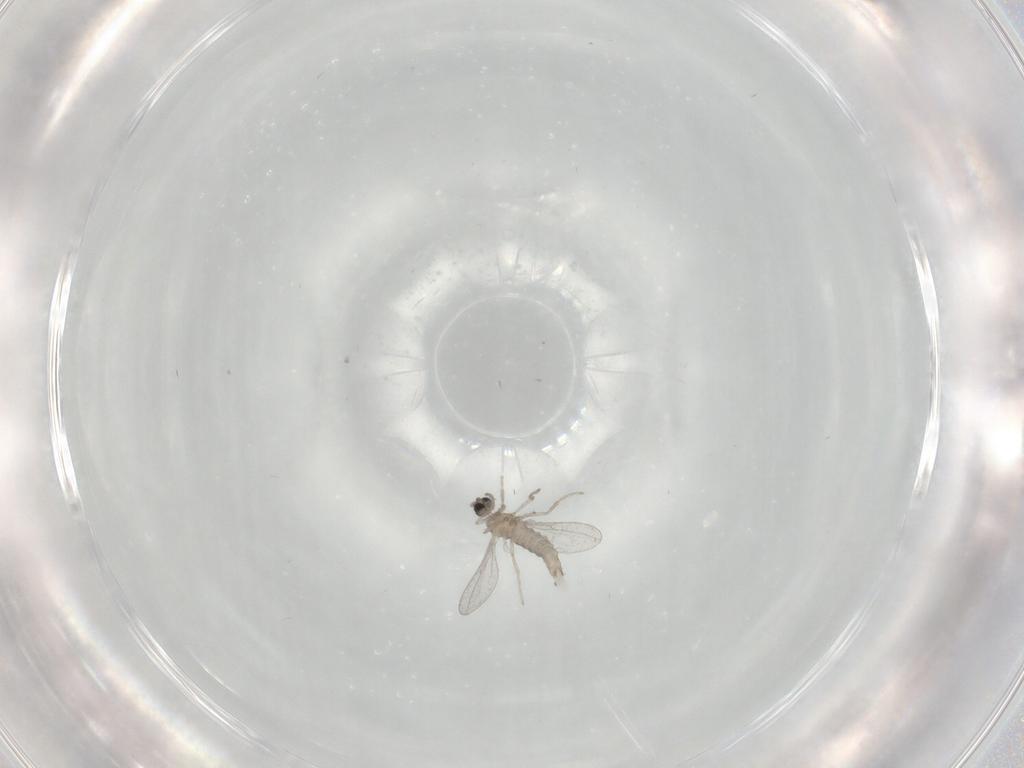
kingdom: Animalia
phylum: Arthropoda
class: Insecta
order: Diptera
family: Cecidomyiidae
